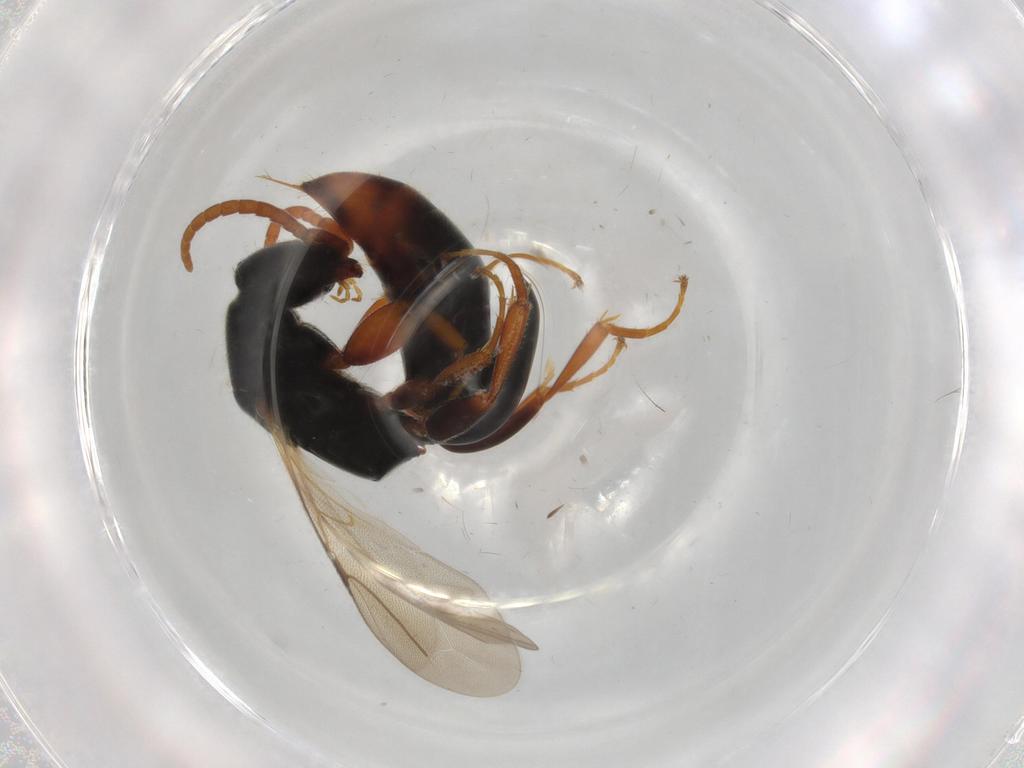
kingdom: Animalia
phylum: Arthropoda
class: Insecta
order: Hymenoptera
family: Bethylidae
